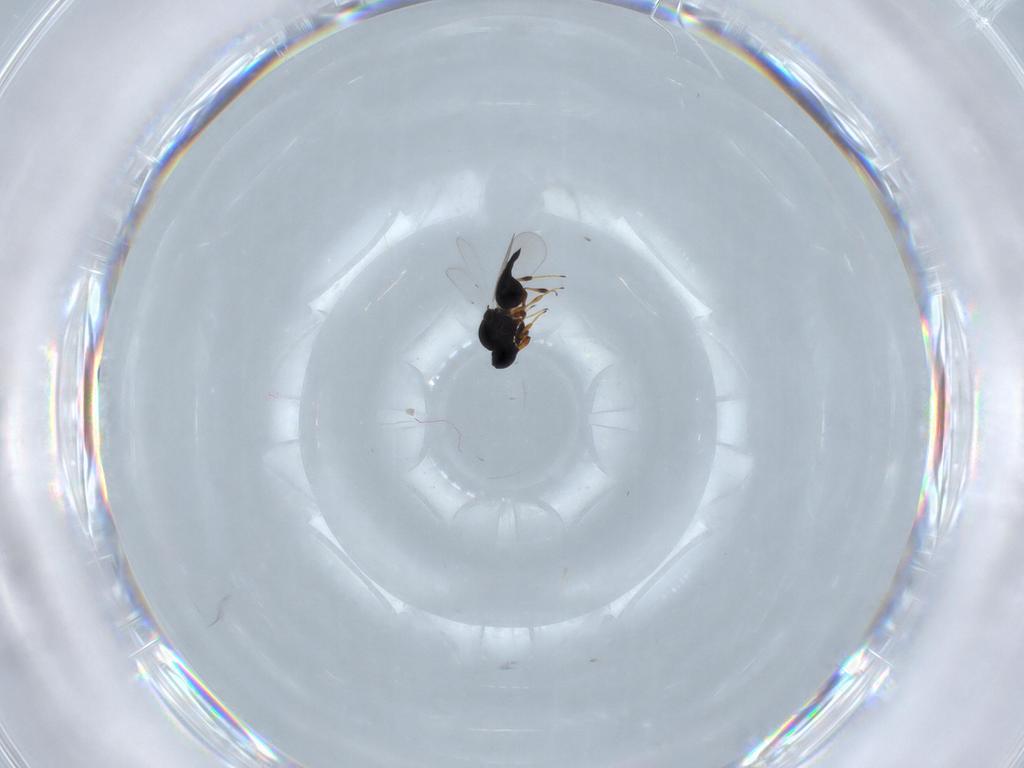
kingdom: Animalia
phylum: Arthropoda
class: Insecta
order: Hymenoptera
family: Platygastridae
